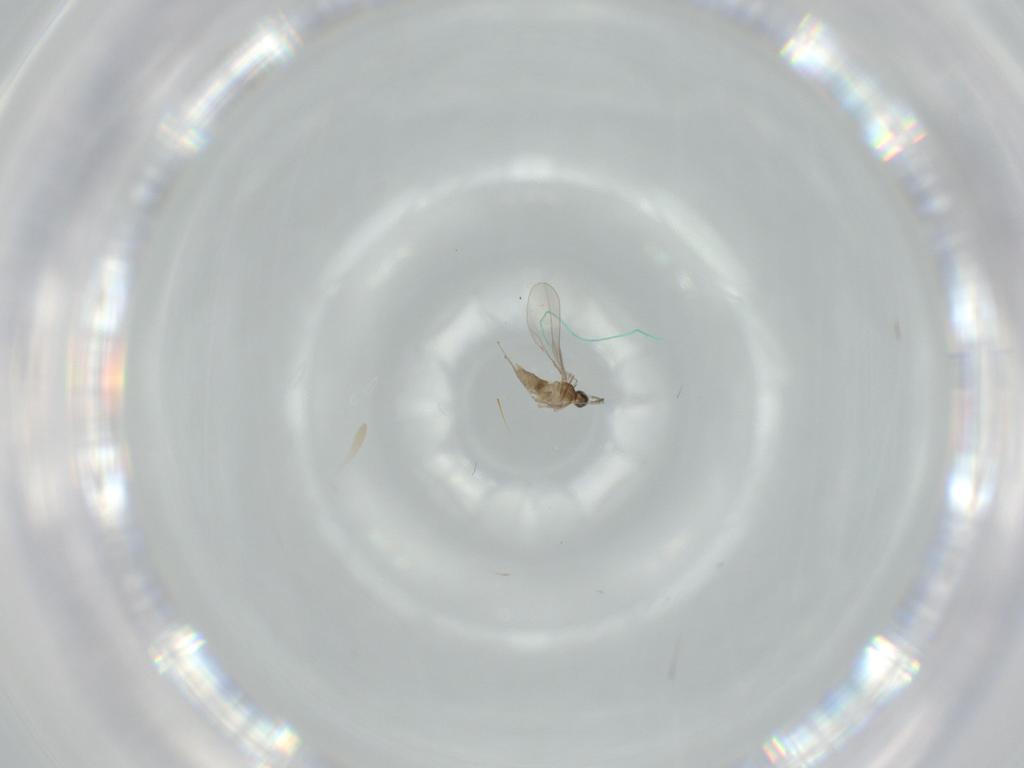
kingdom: Animalia
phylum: Arthropoda
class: Insecta
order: Diptera
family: Cecidomyiidae
